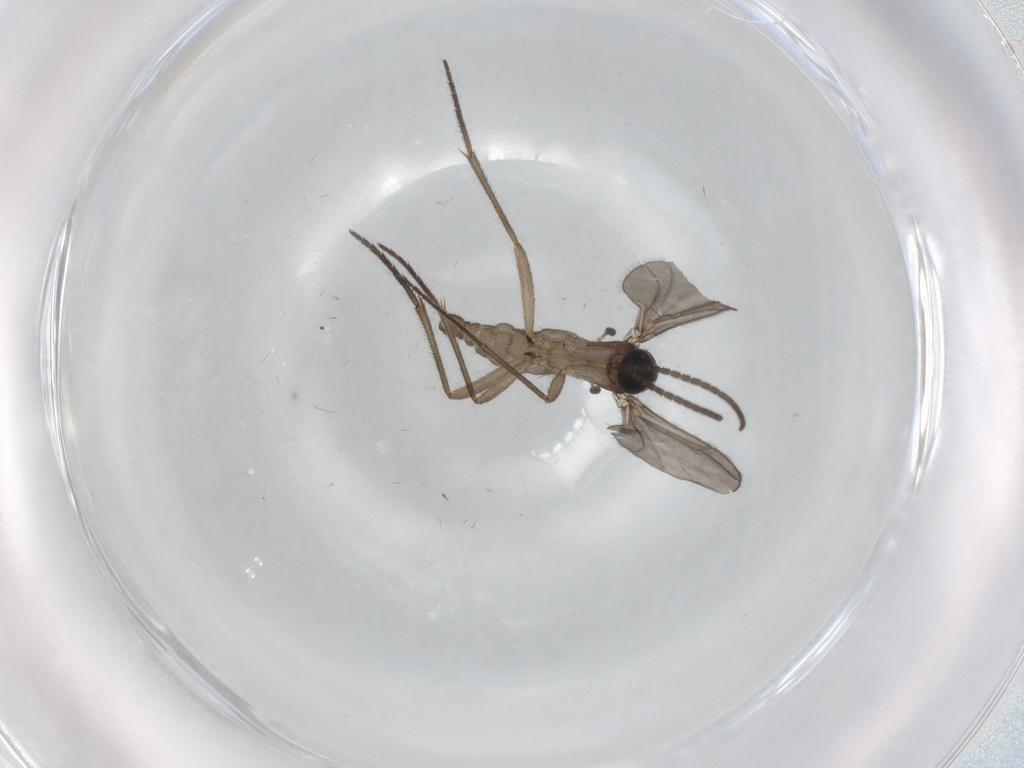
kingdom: Animalia
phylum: Arthropoda
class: Insecta
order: Diptera
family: Sciaridae
